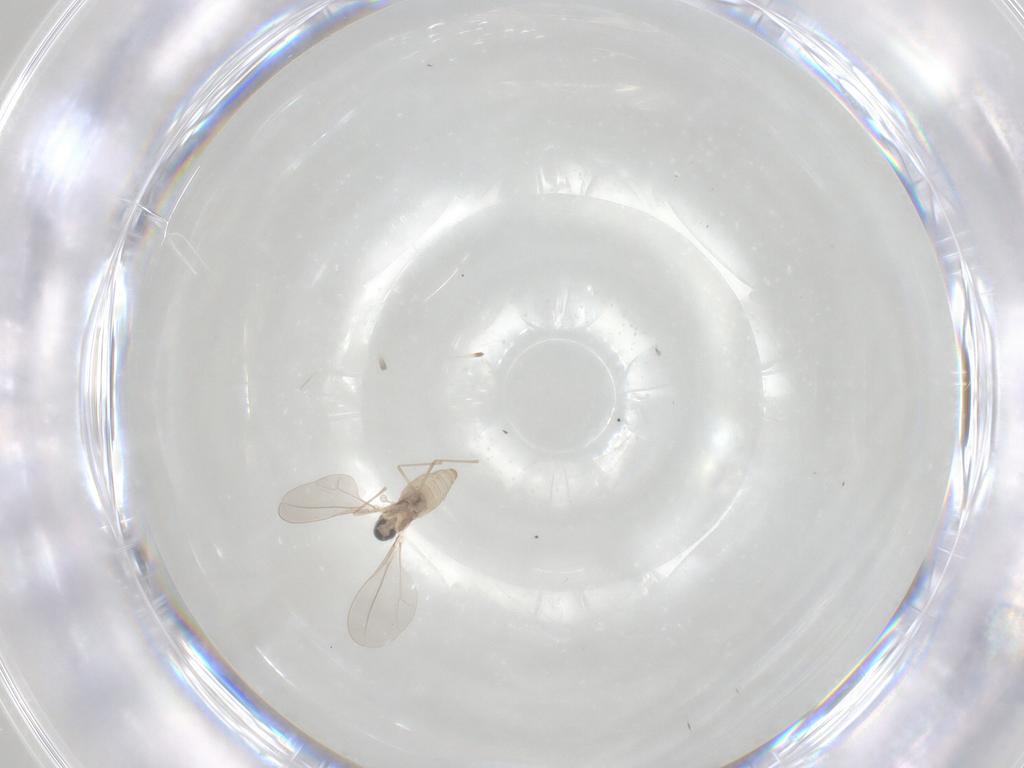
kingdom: Animalia
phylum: Arthropoda
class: Insecta
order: Diptera
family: Cecidomyiidae
